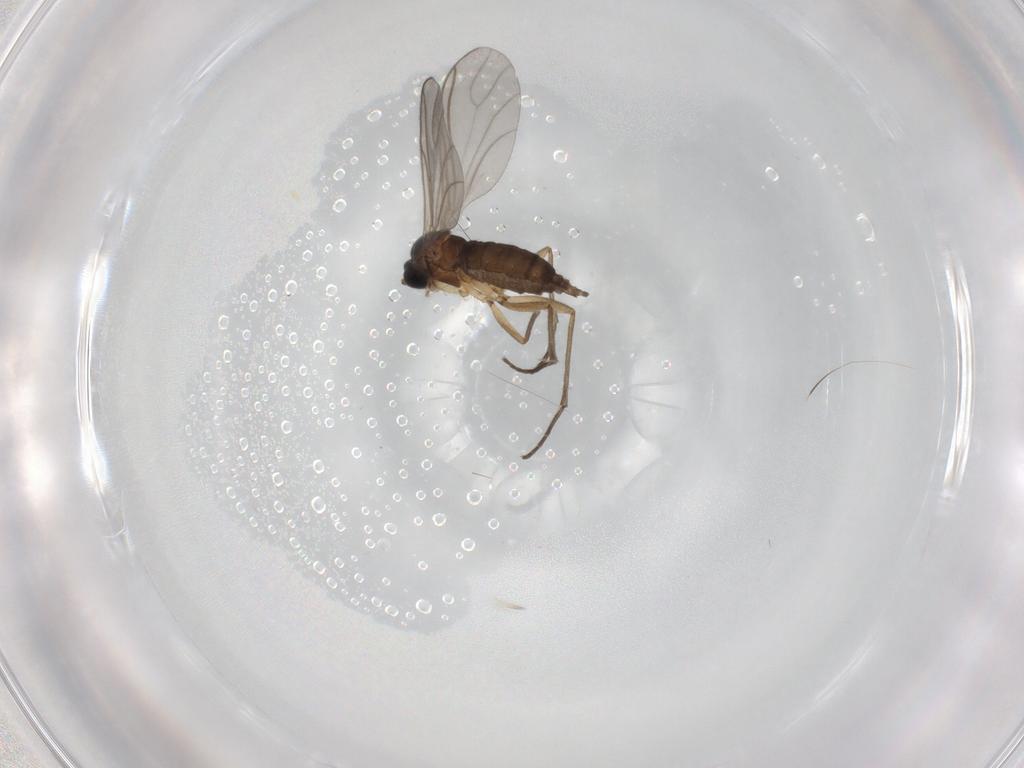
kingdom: Animalia
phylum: Arthropoda
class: Insecta
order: Diptera
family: Sciaridae
